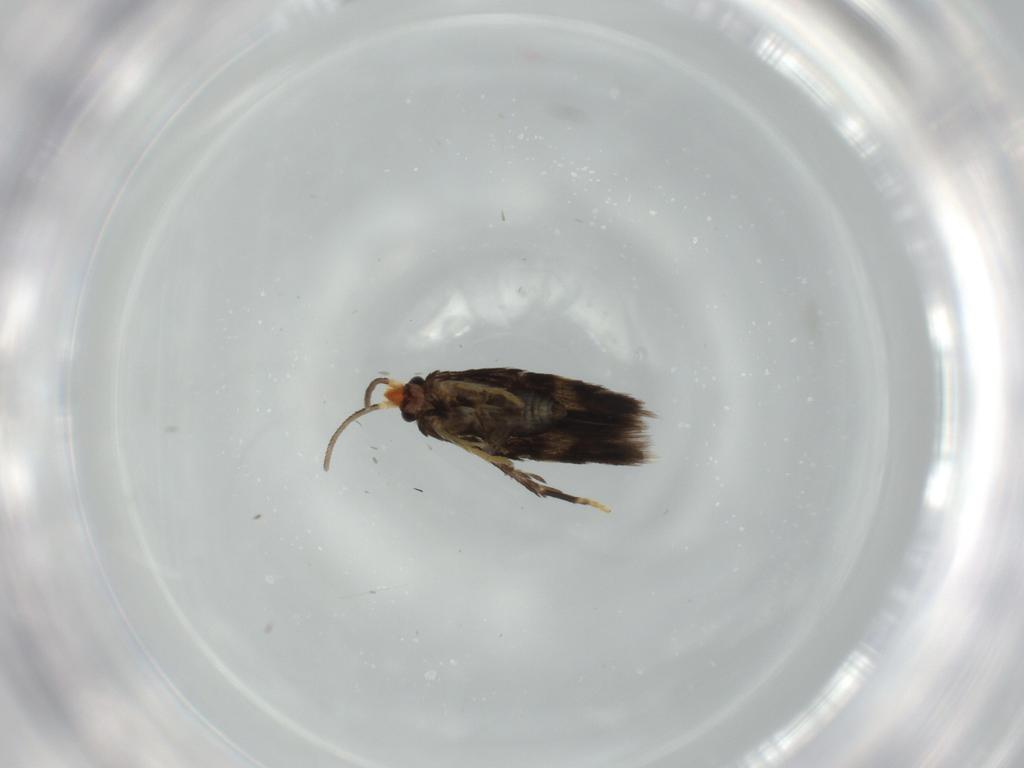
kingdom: Animalia
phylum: Arthropoda
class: Insecta
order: Lepidoptera
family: Nepticulidae
